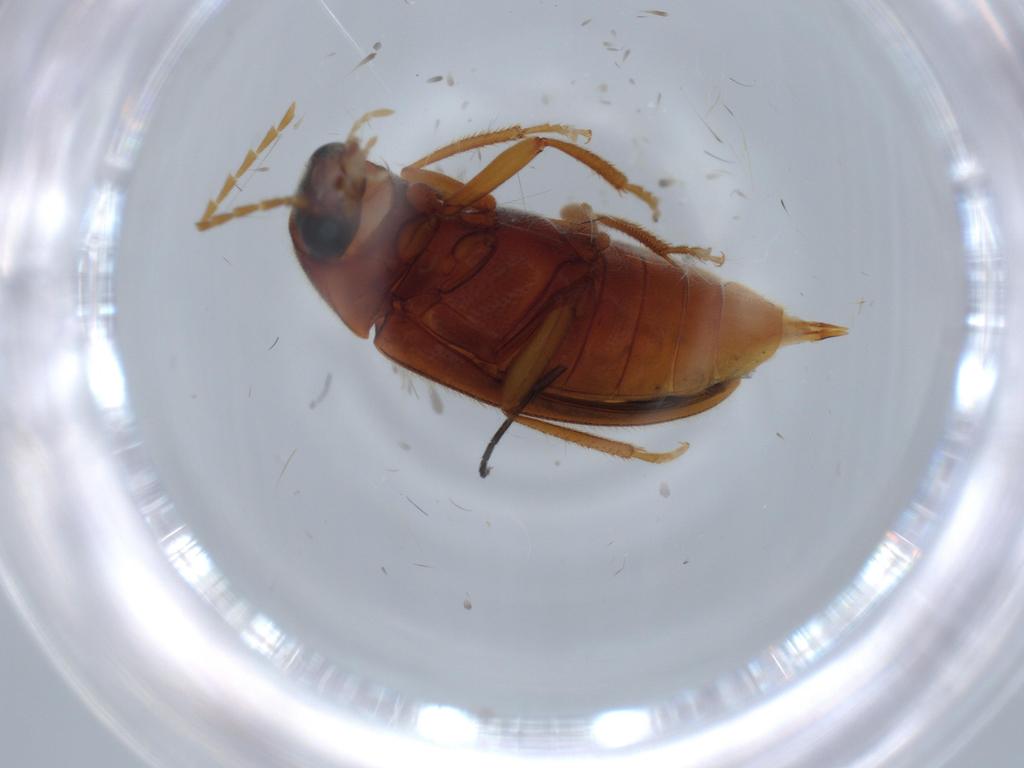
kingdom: Animalia
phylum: Arthropoda
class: Insecta
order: Coleoptera
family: Ptilodactylidae
